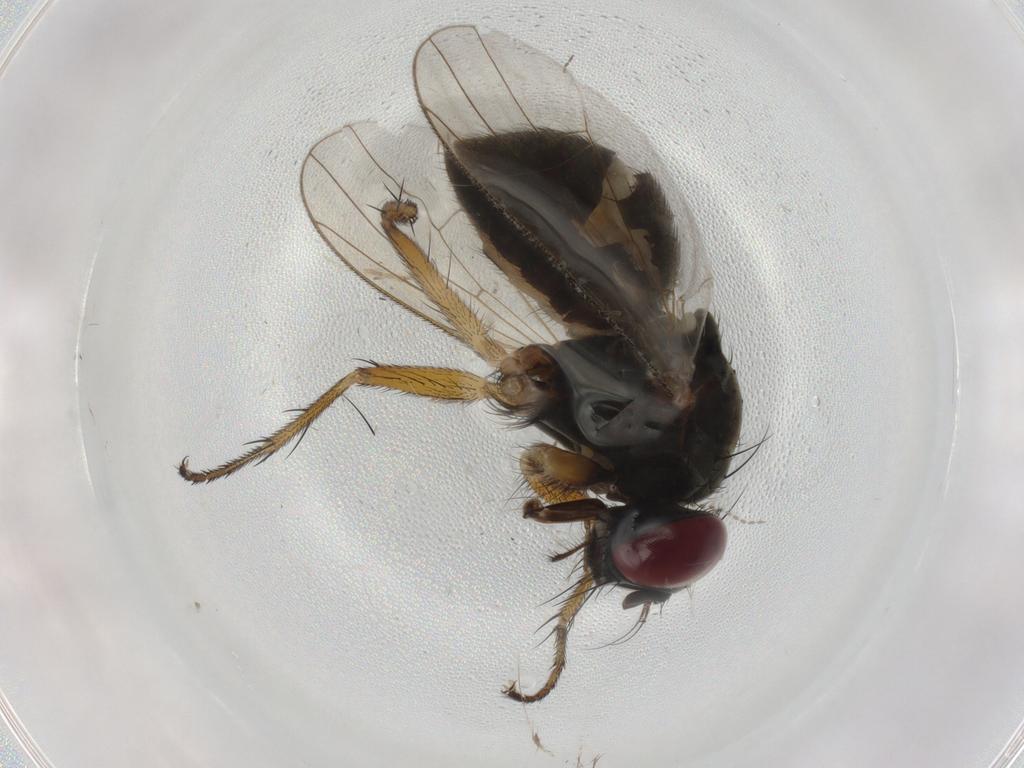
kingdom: Animalia
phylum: Arthropoda
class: Insecta
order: Diptera
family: Muscidae
